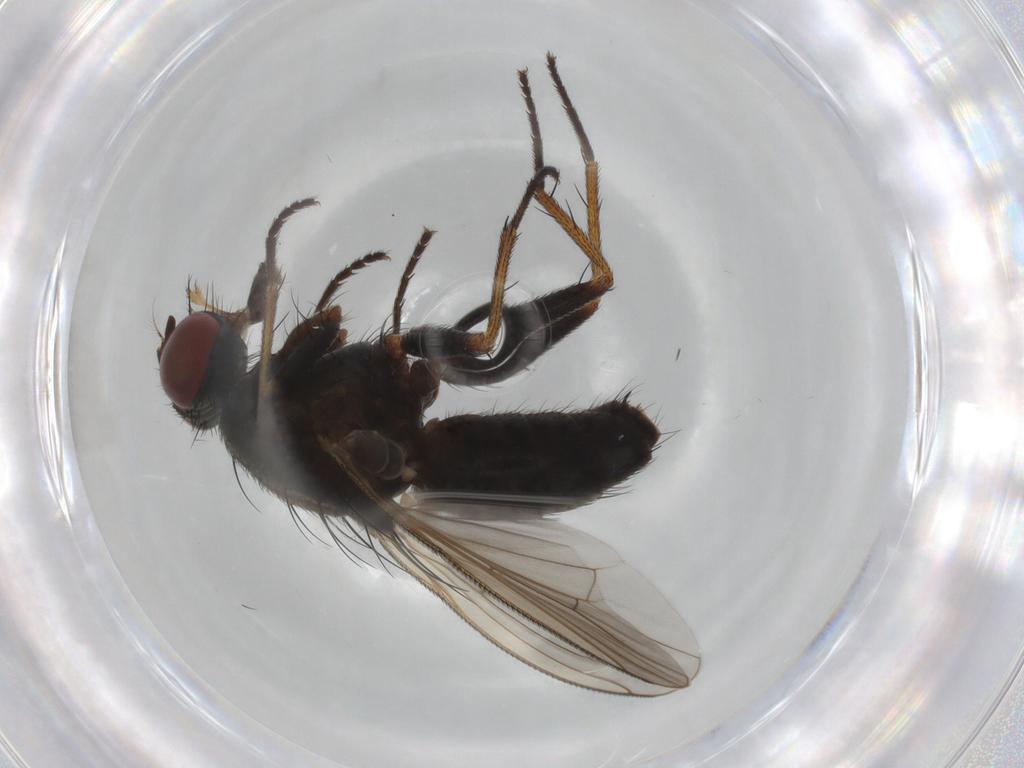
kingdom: Animalia
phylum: Arthropoda
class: Insecta
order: Diptera
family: Muscidae
